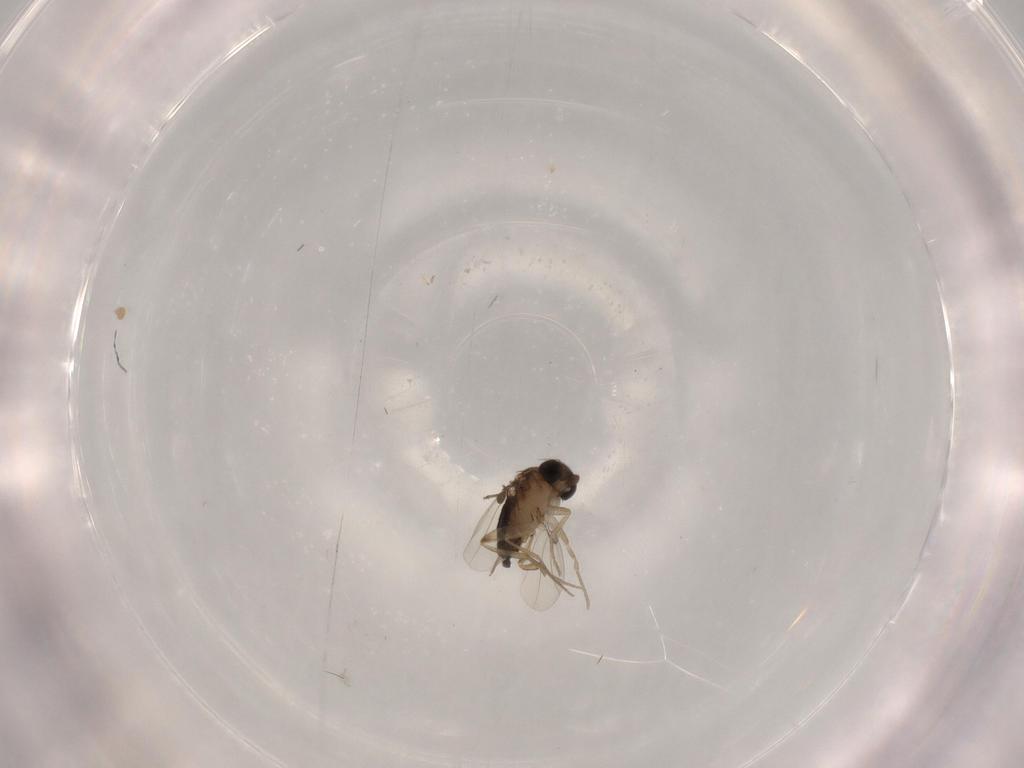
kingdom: Animalia
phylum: Arthropoda
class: Insecta
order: Diptera
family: Phoridae
